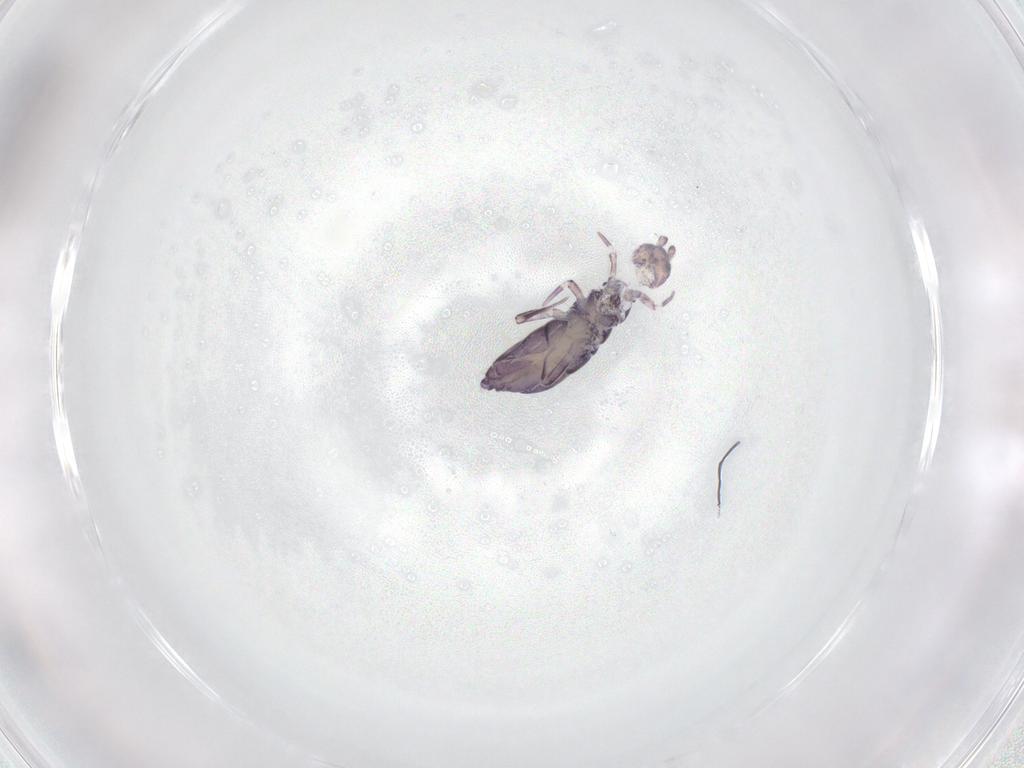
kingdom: Animalia
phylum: Arthropoda
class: Collembola
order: Entomobryomorpha
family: Entomobryidae
